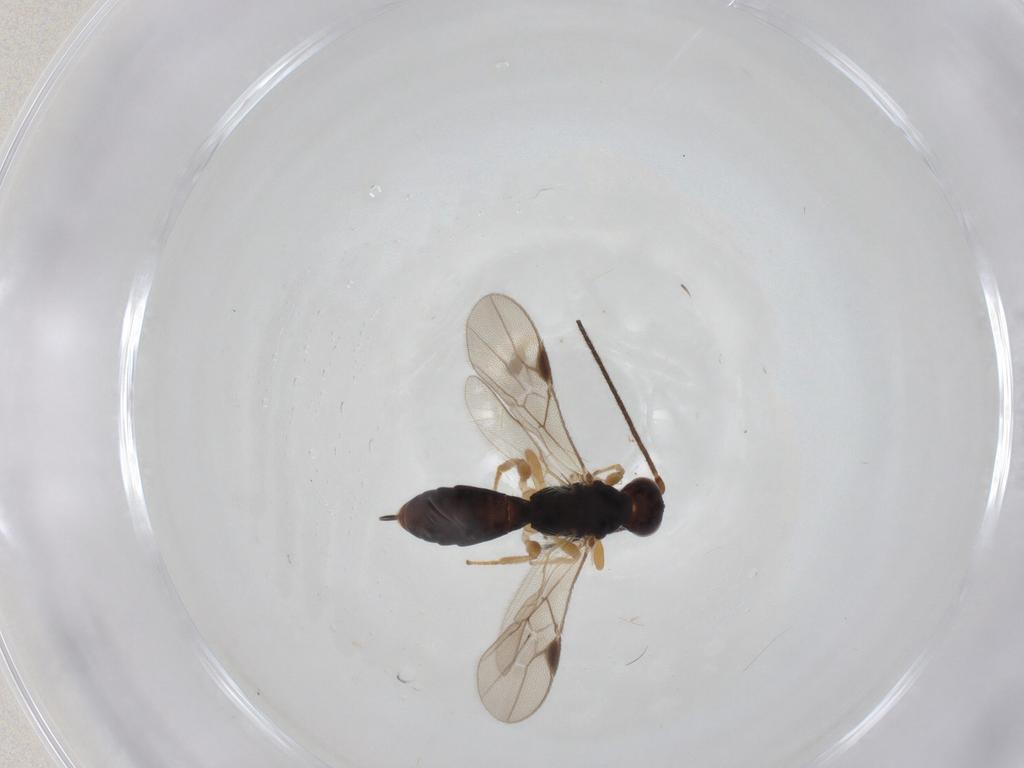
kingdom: Animalia
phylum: Arthropoda
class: Insecta
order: Hymenoptera
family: Braconidae
